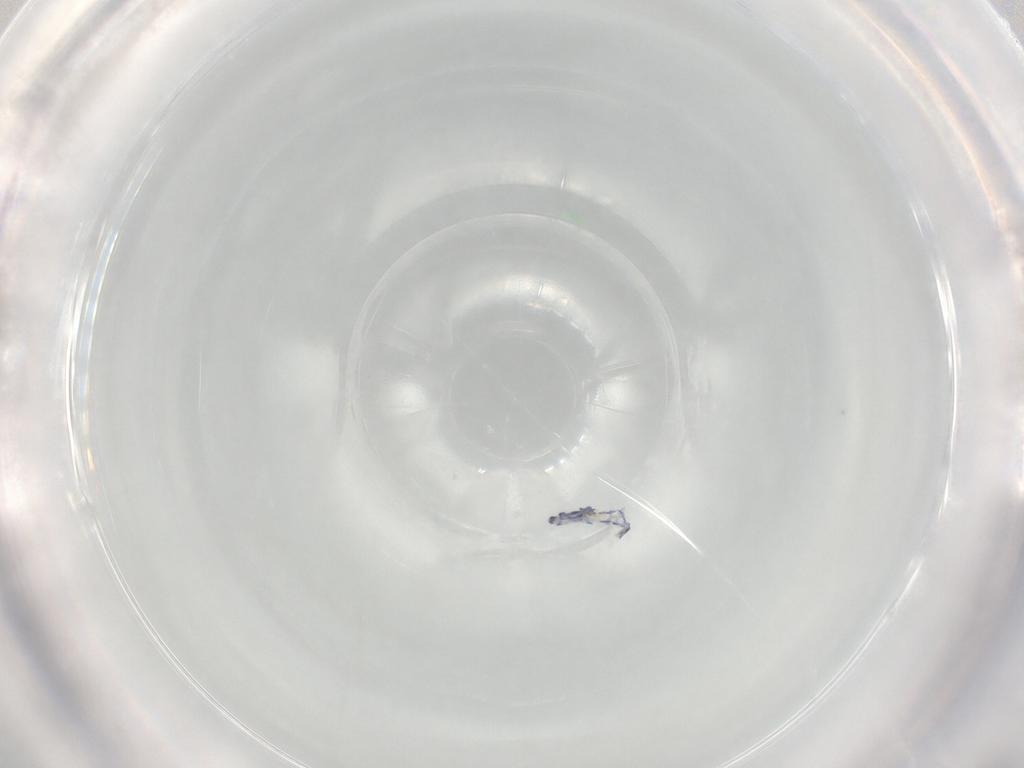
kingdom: Animalia
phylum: Arthropoda
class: Collembola
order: Entomobryomorpha
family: Entomobryidae
